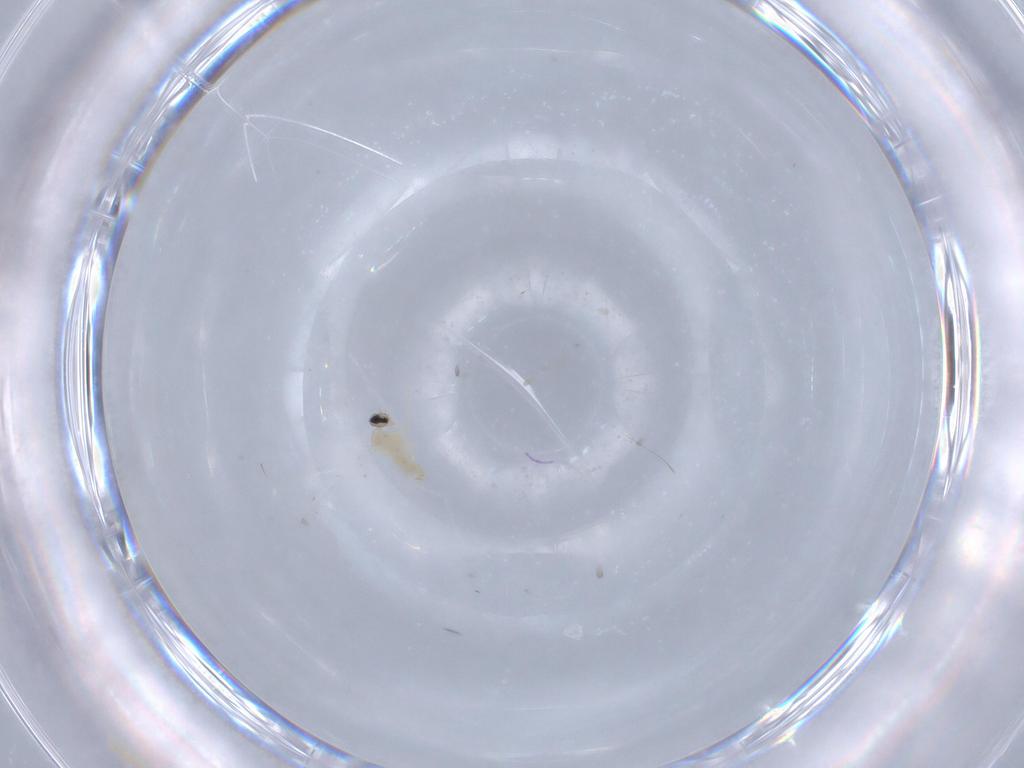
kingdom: Animalia
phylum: Arthropoda
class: Insecta
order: Diptera
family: Cecidomyiidae
